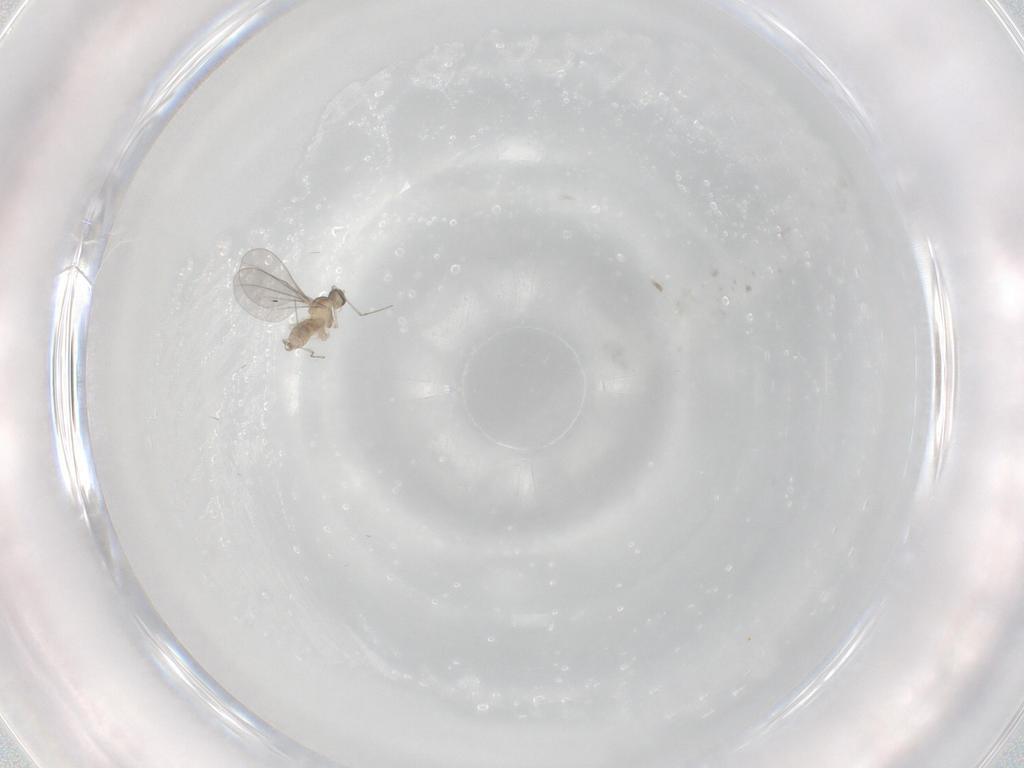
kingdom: Animalia
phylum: Arthropoda
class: Insecta
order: Diptera
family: Cecidomyiidae
